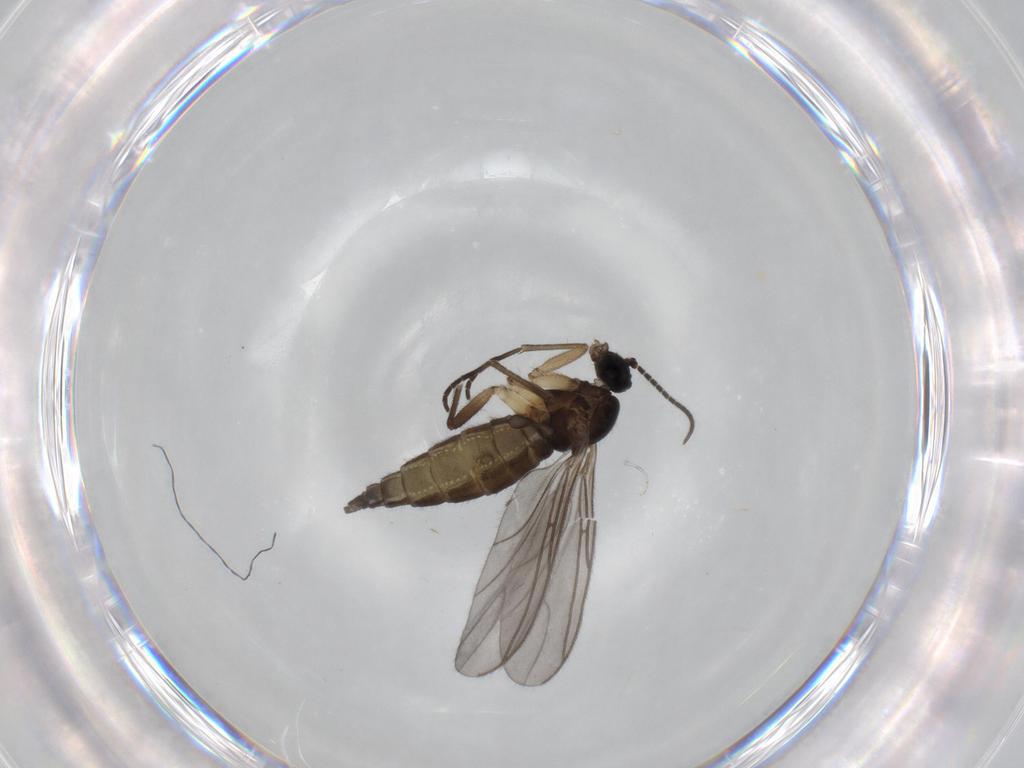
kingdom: Animalia
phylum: Arthropoda
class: Insecta
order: Diptera
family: Sciaridae
